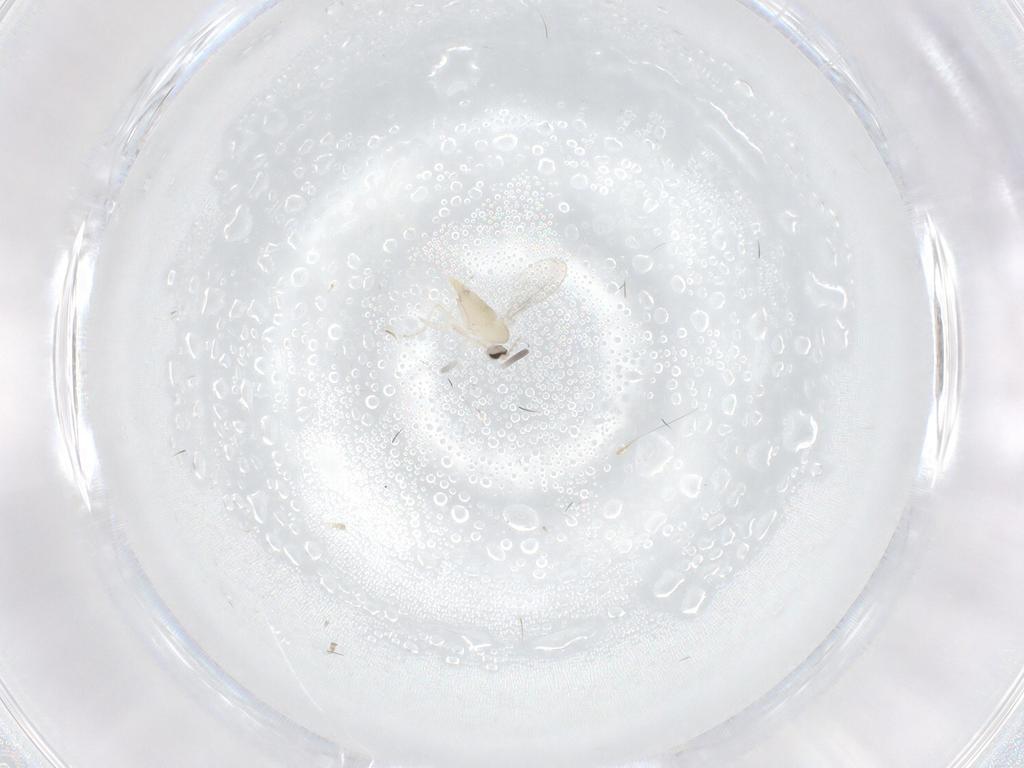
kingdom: Animalia
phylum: Arthropoda
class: Insecta
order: Diptera
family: Cecidomyiidae
